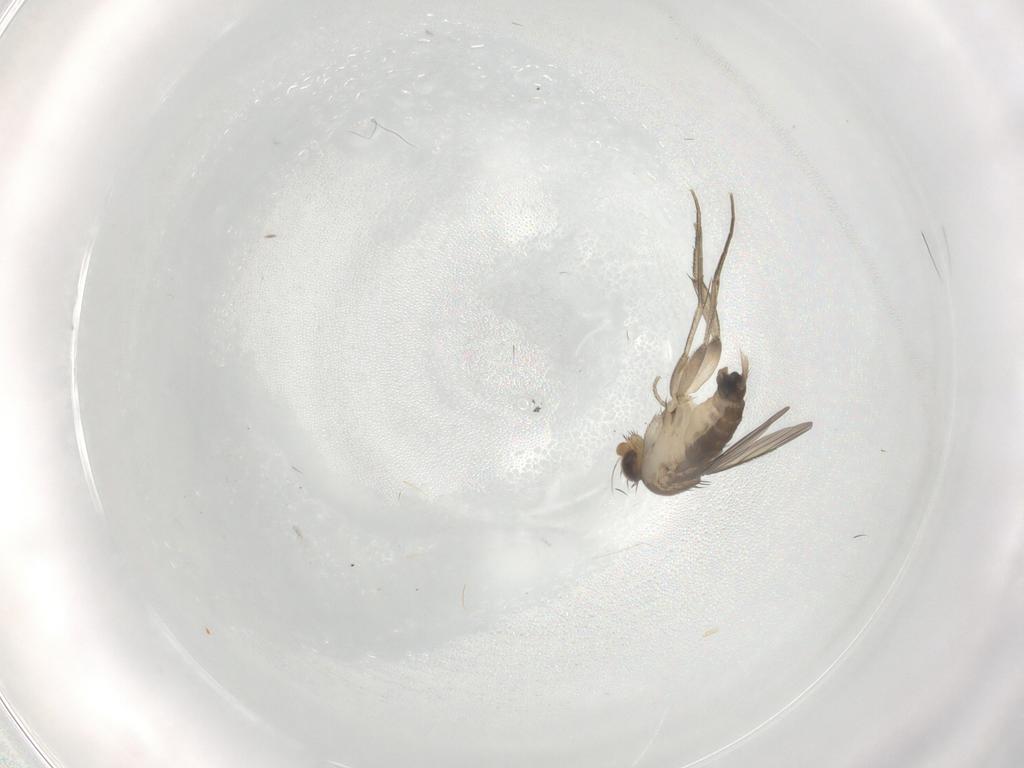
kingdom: Animalia
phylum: Arthropoda
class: Insecta
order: Diptera
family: Phoridae
